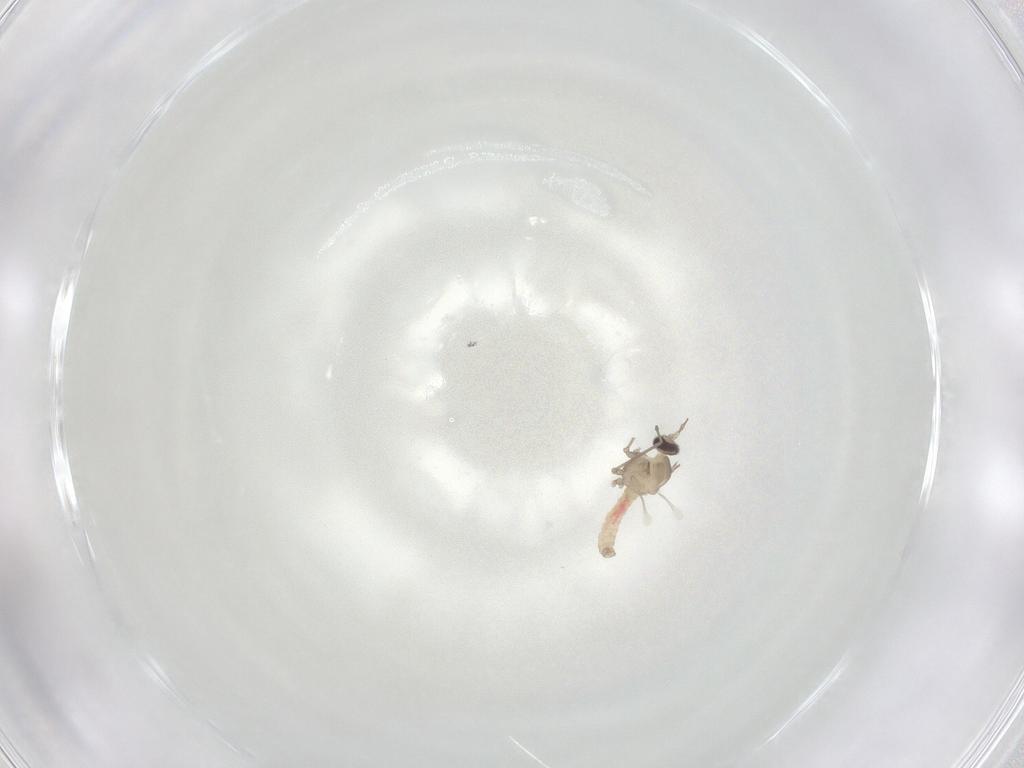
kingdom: Animalia
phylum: Arthropoda
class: Insecta
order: Diptera
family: Cecidomyiidae
